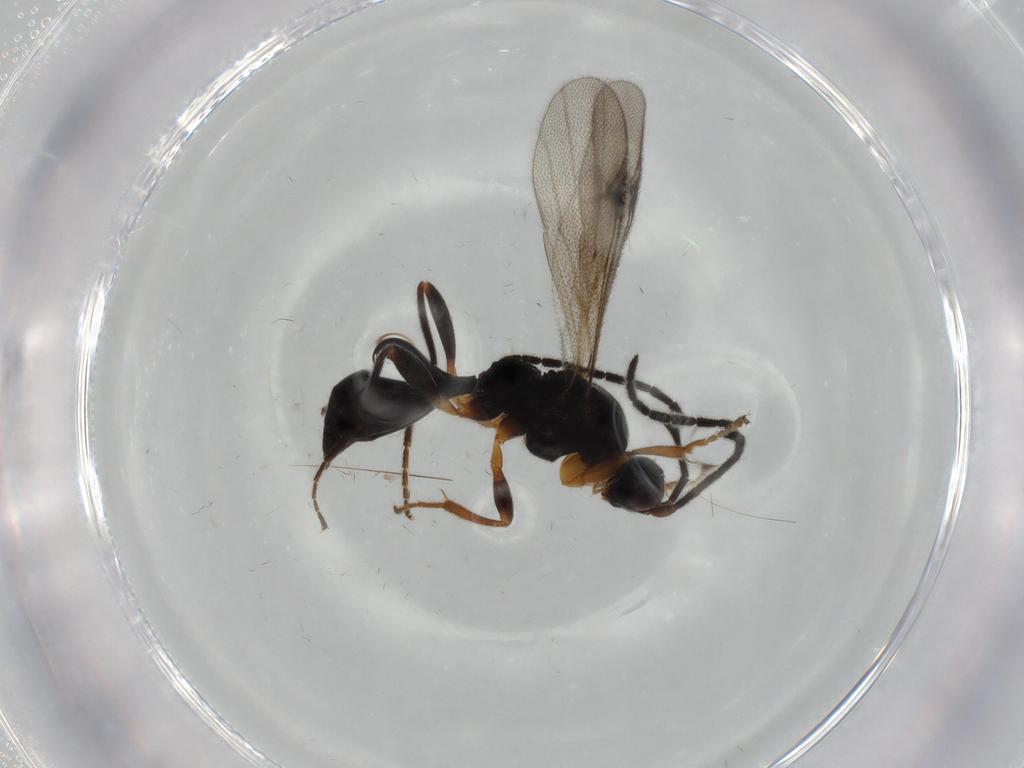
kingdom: Animalia
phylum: Arthropoda
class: Insecta
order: Hymenoptera
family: Proctotrupidae
